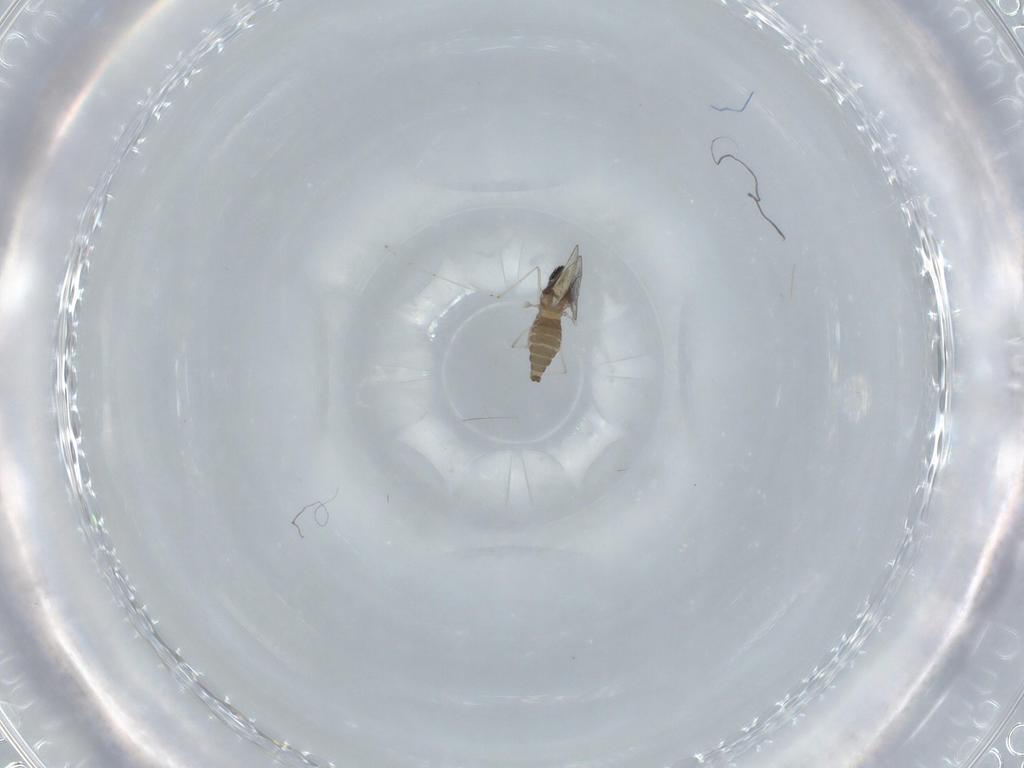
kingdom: Animalia
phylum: Arthropoda
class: Insecta
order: Diptera
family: Cecidomyiidae
